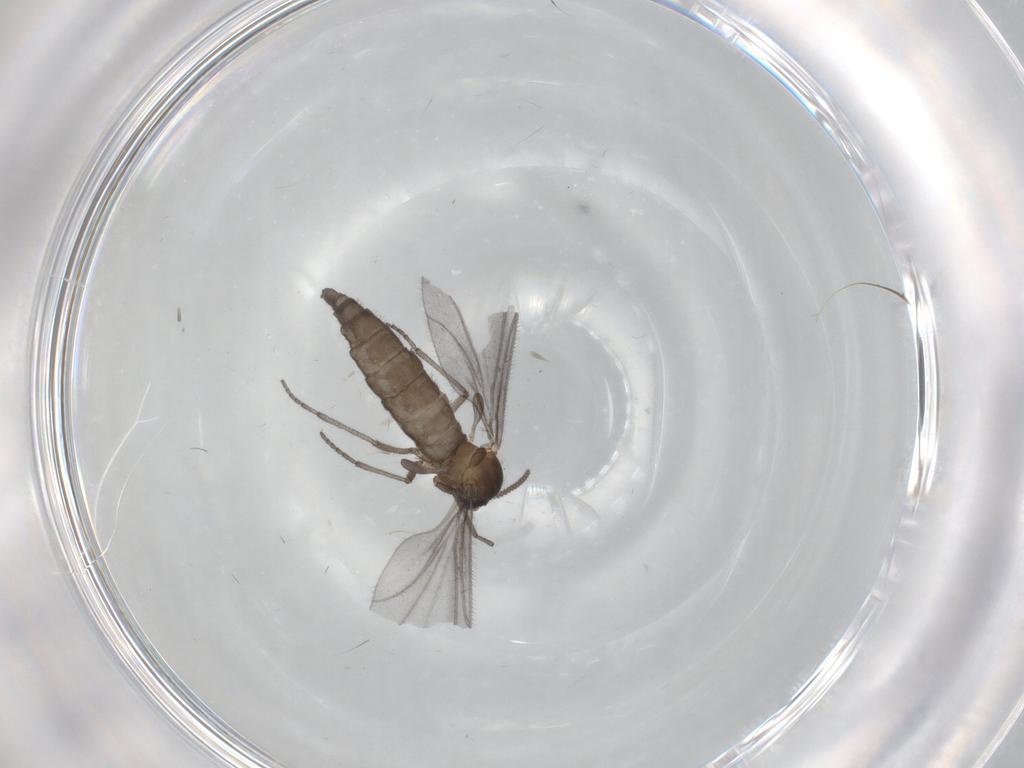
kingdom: Animalia
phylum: Arthropoda
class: Insecta
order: Diptera
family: Sciaridae
